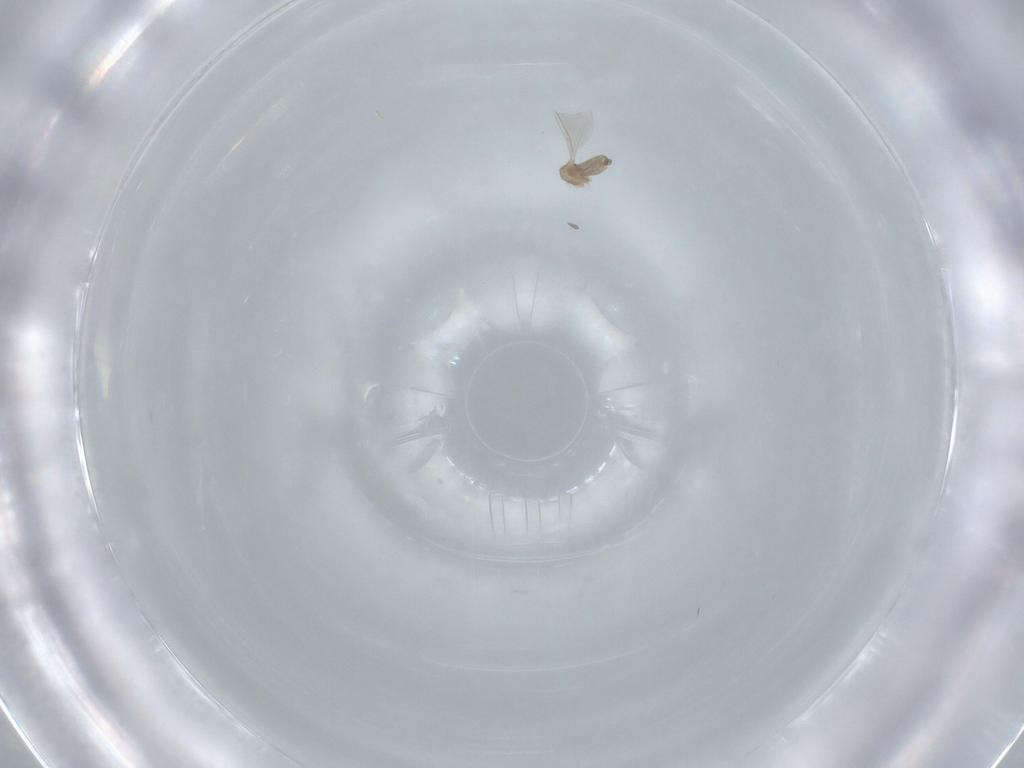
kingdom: Animalia
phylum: Arthropoda
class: Insecta
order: Diptera
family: Cecidomyiidae
